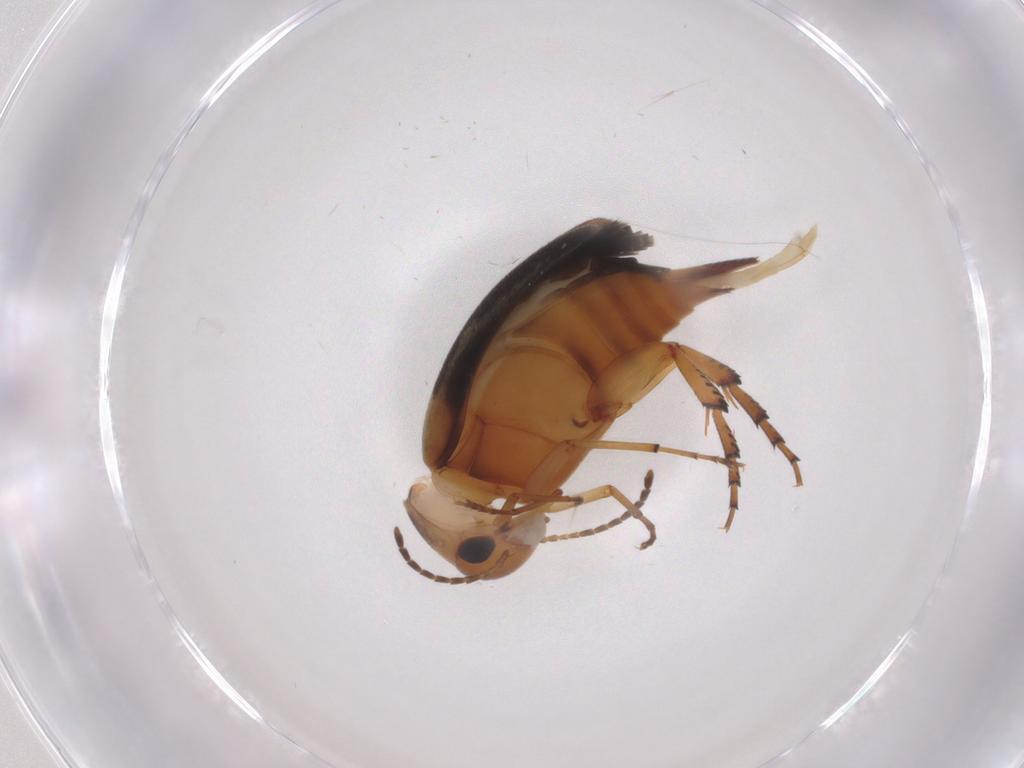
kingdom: Animalia
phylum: Arthropoda
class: Insecta
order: Coleoptera
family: Mordellidae
